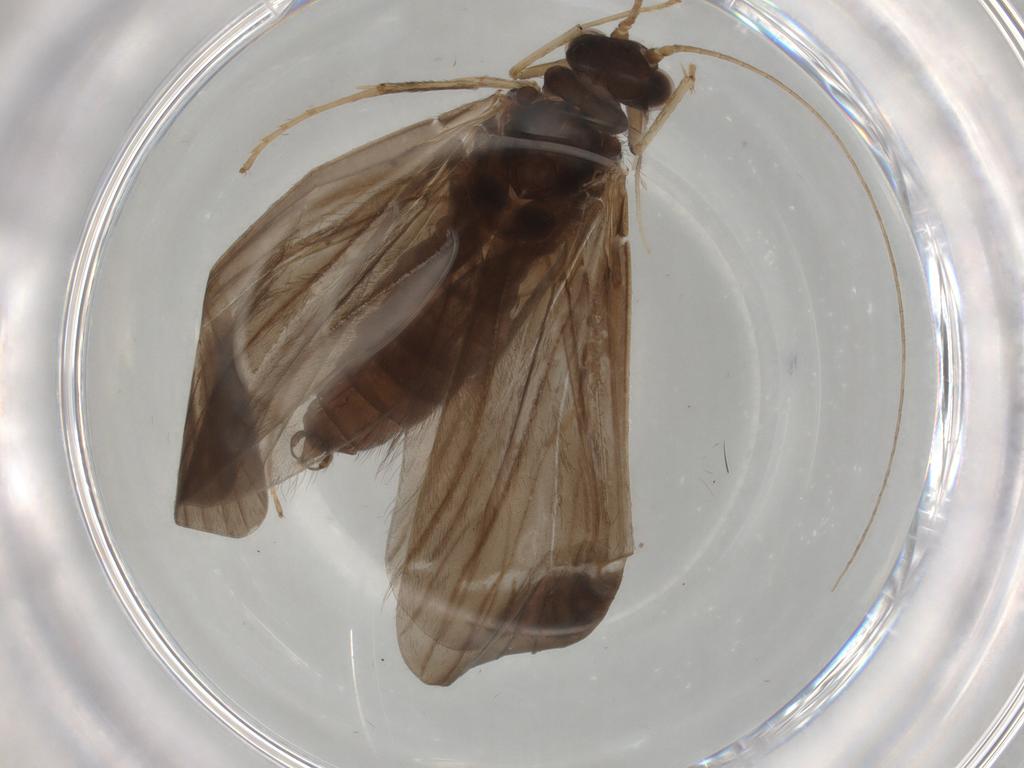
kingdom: Animalia
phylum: Arthropoda
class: Insecta
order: Trichoptera
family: Hydropsychidae
